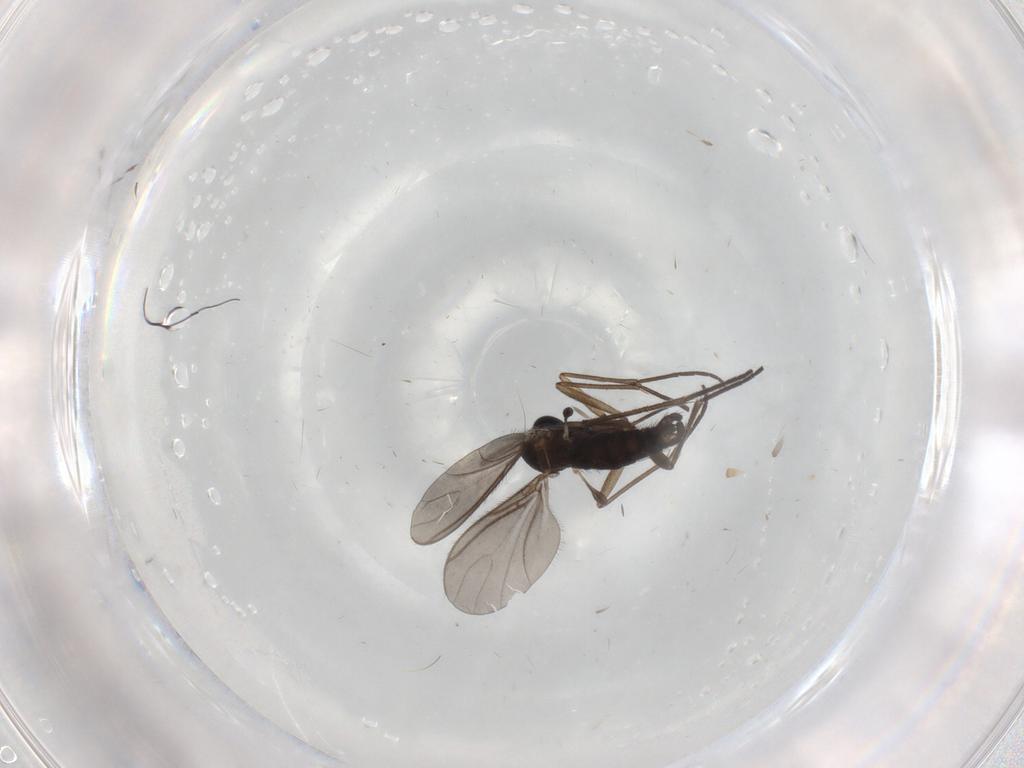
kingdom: Animalia
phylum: Arthropoda
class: Insecta
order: Diptera
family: Sciaridae
